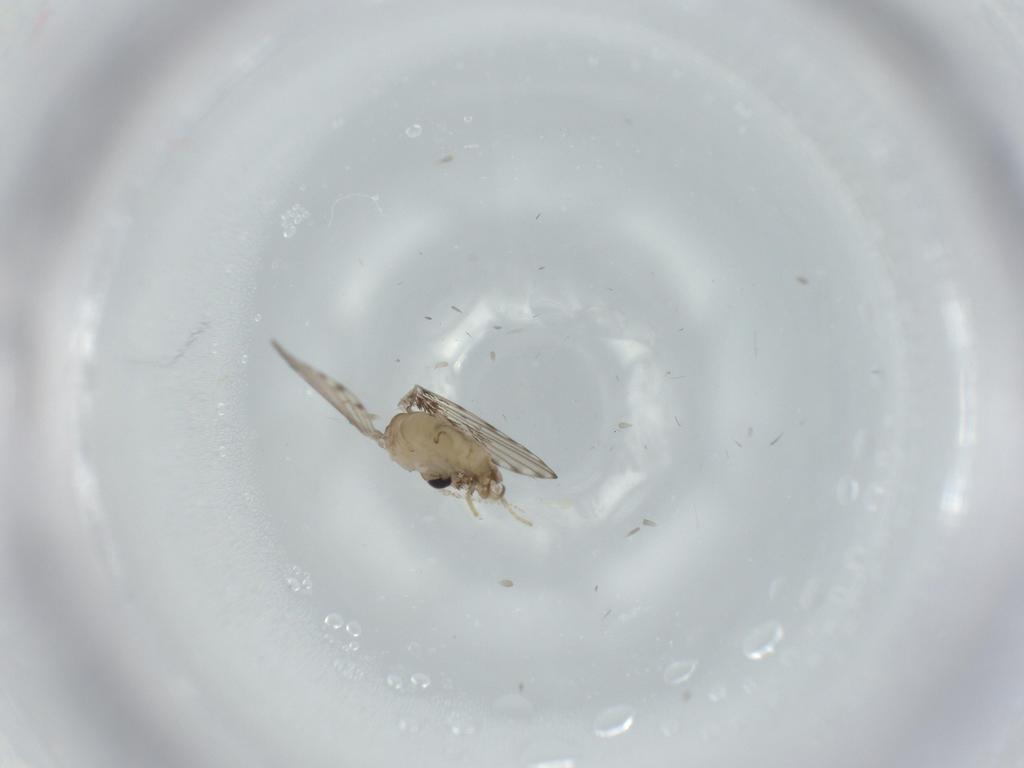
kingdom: Animalia
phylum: Arthropoda
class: Insecta
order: Diptera
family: Psychodidae
